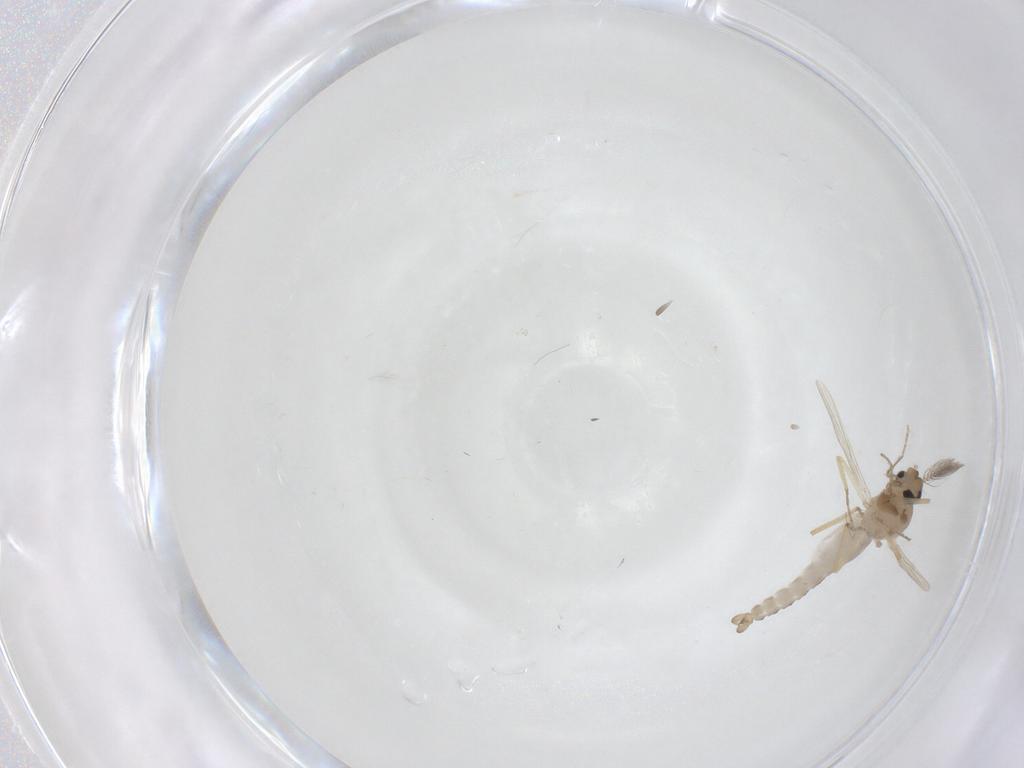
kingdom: Animalia
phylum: Arthropoda
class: Insecta
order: Diptera
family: Ceratopogonidae
